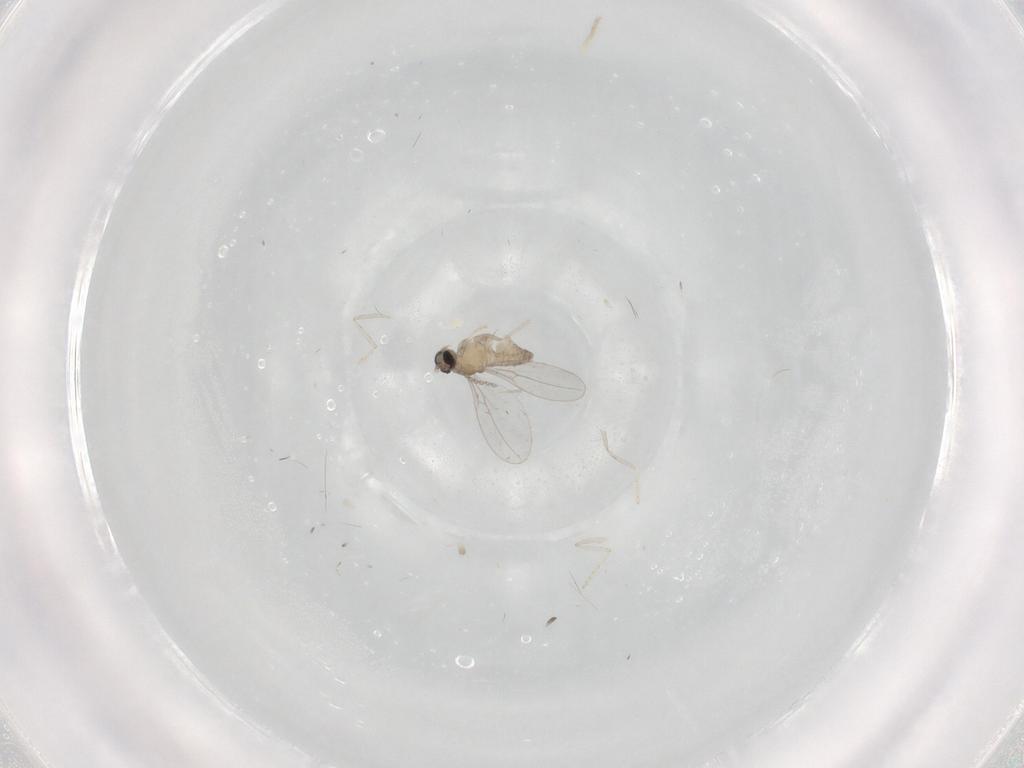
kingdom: Animalia
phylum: Arthropoda
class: Insecta
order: Diptera
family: Cecidomyiidae
